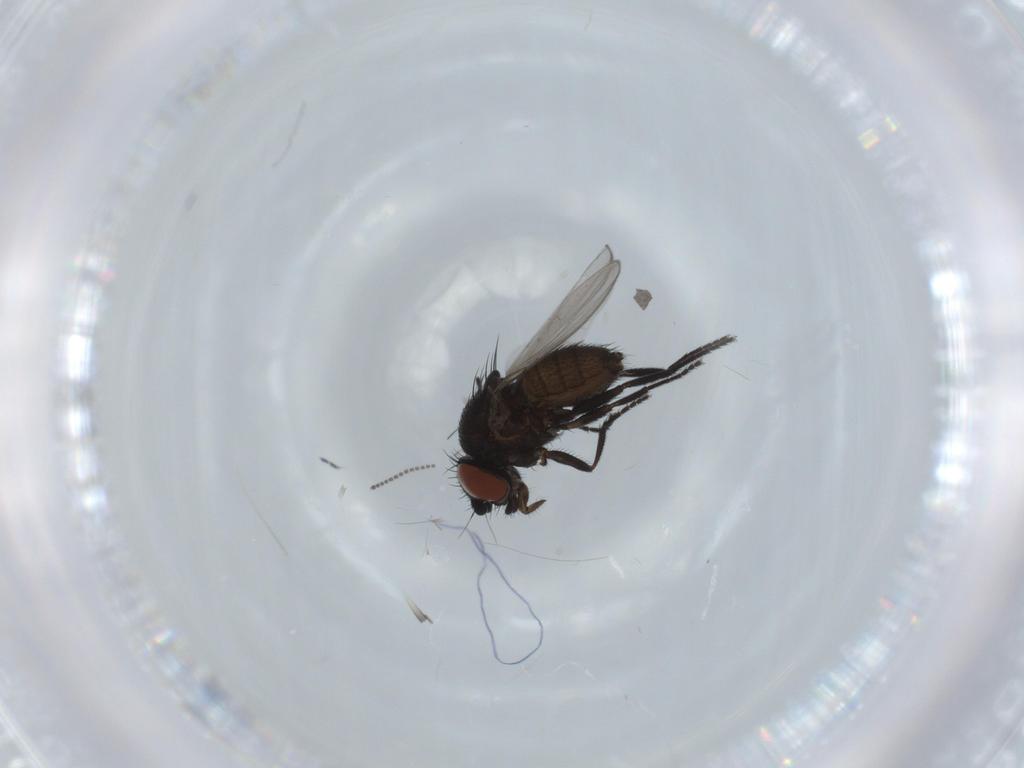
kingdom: Animalia
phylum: Arthropoda
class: Insecta
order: Diptera
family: Milichiidae
